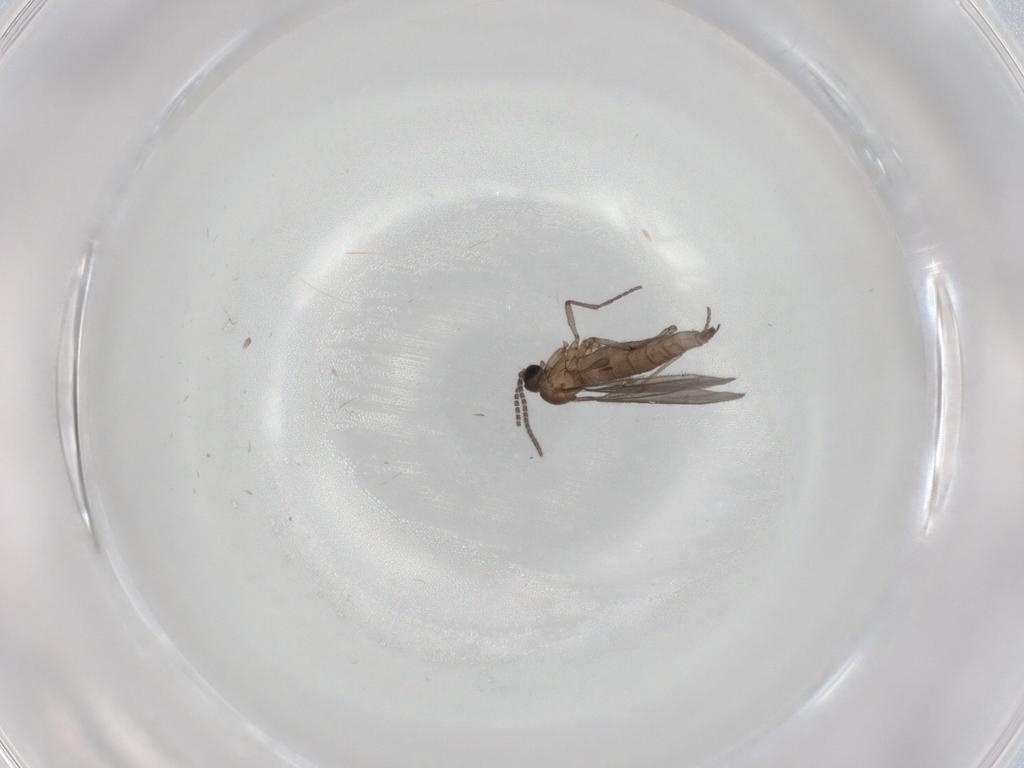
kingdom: Animalia
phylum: Arthropoda
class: Insecta
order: Diptera
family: Sciaridae
